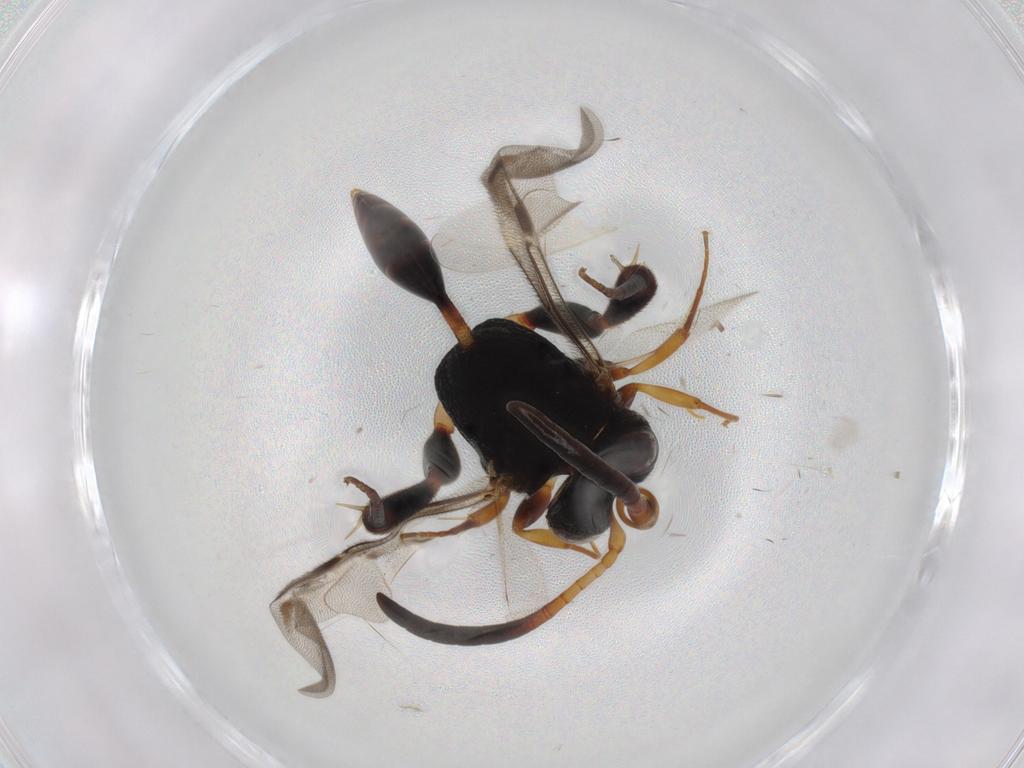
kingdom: Animalia
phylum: Arthropoda
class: Insecta
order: Hymenoptera
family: Evaniidae
